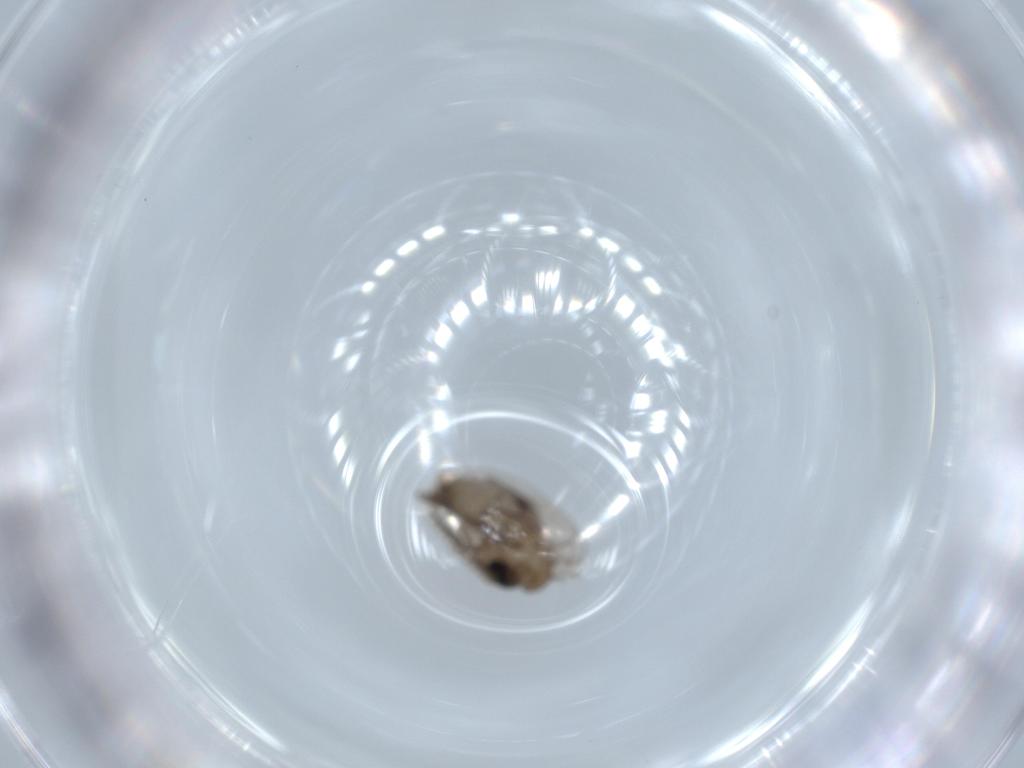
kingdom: Animalia
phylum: Arthropoda
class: Insecta
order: Diptera
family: Psychodidae
